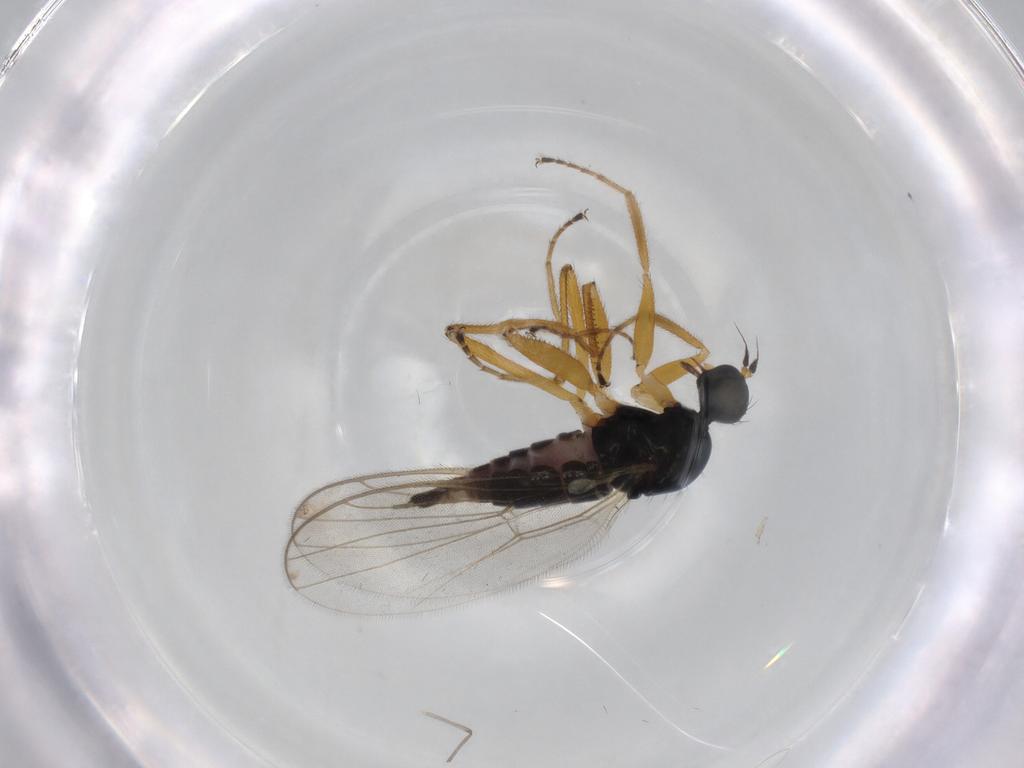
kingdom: Animalia
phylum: Arthropoda
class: Insecta
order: Diptera
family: Hybotidae
